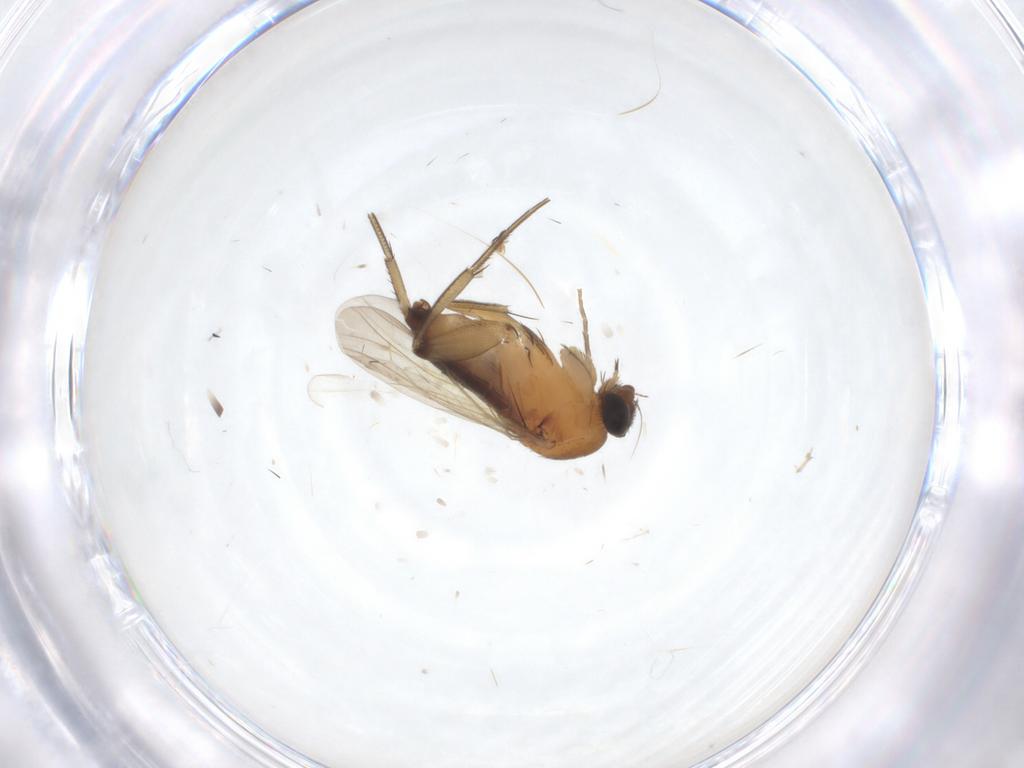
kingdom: Animalia
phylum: Arthropoda
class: Insecta
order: Diptera
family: Phoridae
